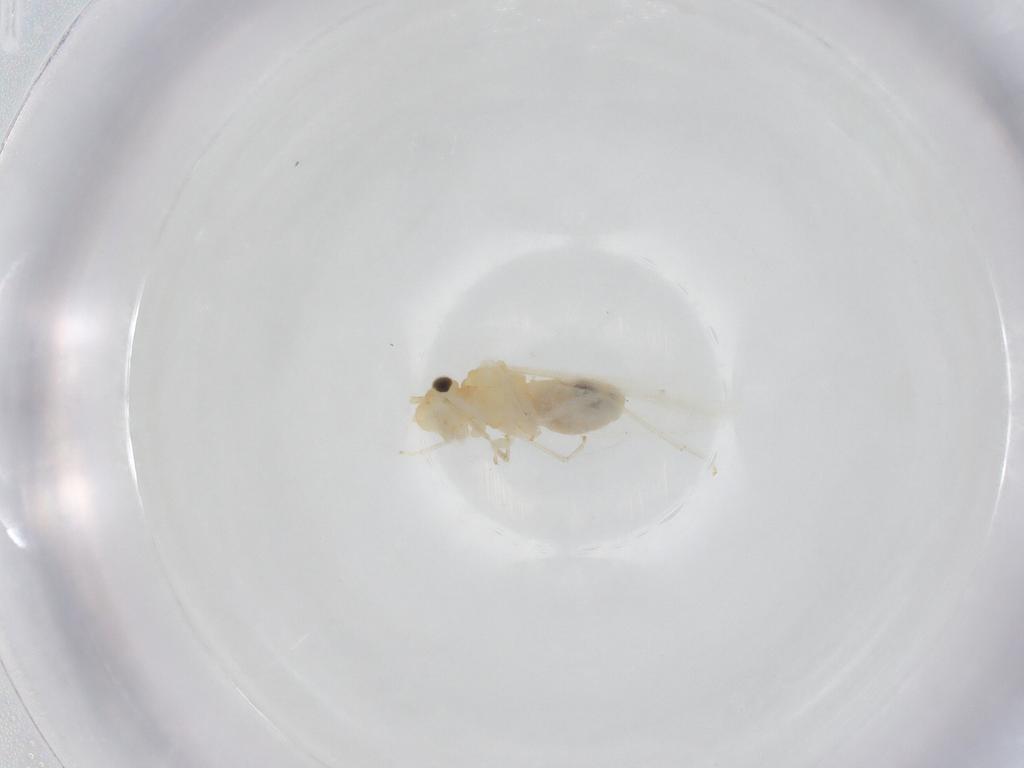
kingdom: Animalia
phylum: Arthropoda
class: Insecta
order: Psocodea
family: Caeciliusidae
